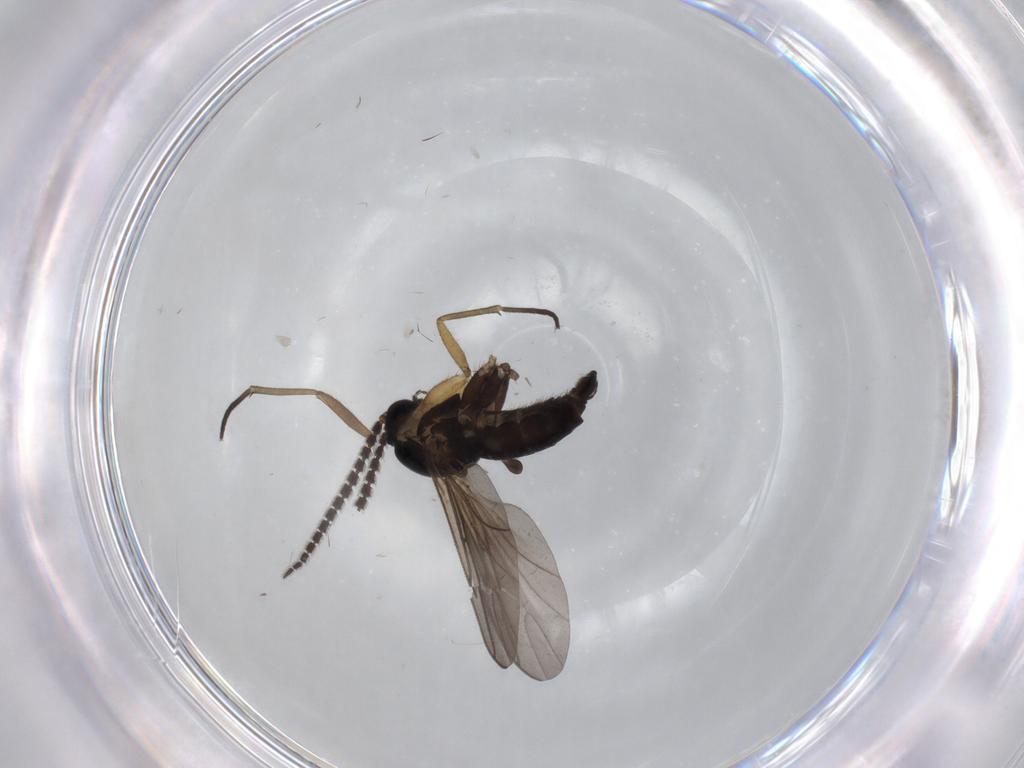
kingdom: Animalia
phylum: Arthropoda
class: Insecta
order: Diptera
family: Sciaridae
